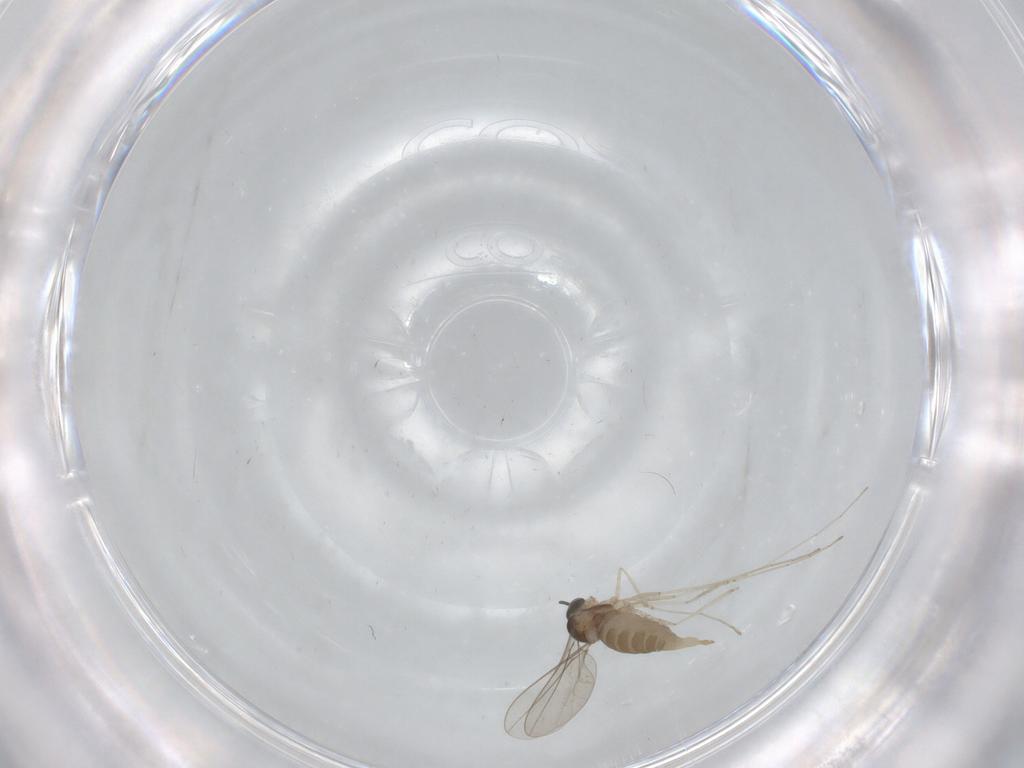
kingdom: Animalia
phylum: Arthropoda
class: Insecta
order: Diptera
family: Cecidomyiidae
